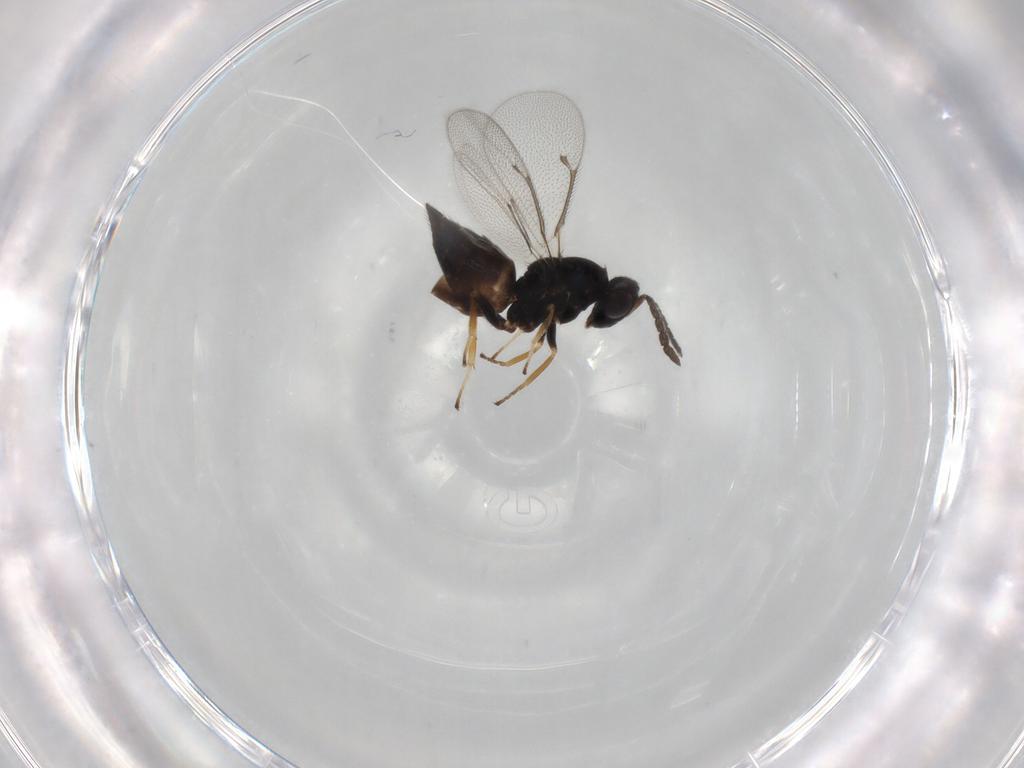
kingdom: Animalia
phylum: Arthropoda
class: Insecta
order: Hymenoptera
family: Eulophidae
